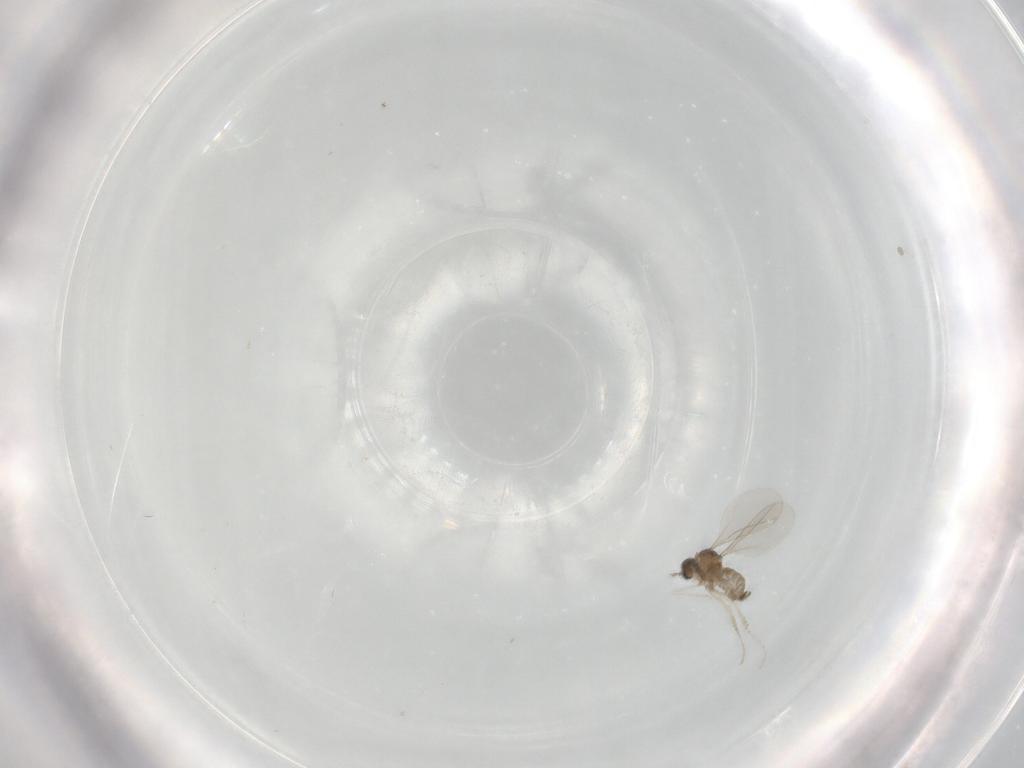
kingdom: Animalia
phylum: Arthropoda
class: Insecta
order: Diptera
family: Cecidomyiidae
